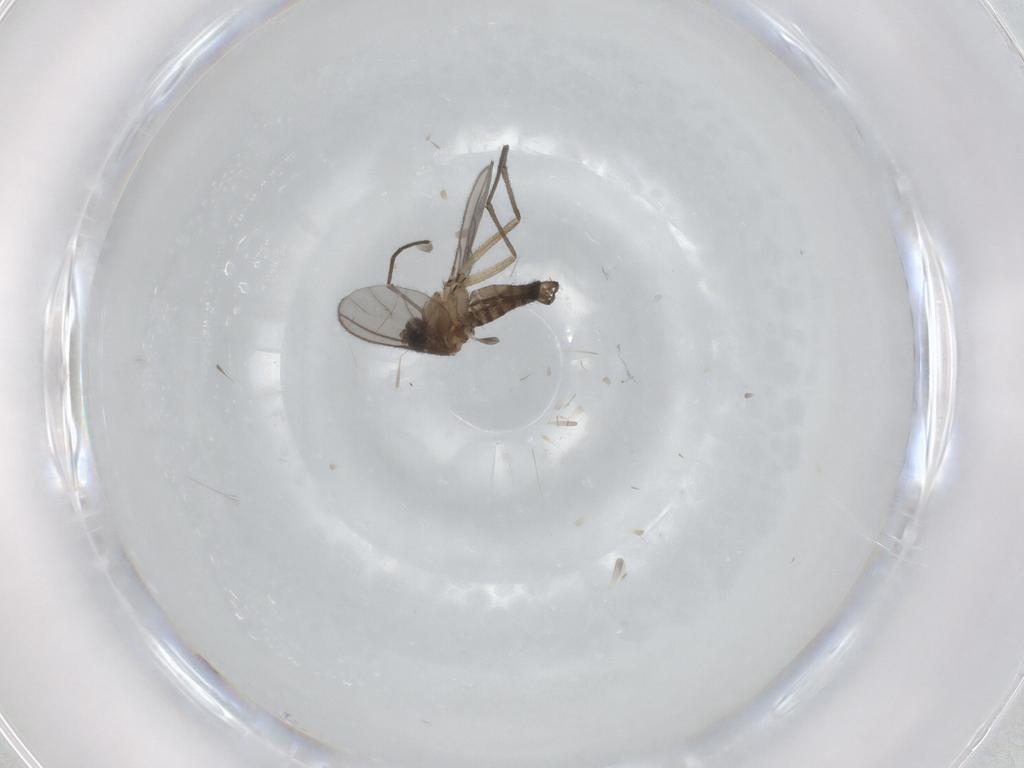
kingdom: Animalia
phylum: Arthropoda
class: Insecta
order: Diptera
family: Sciaridae
